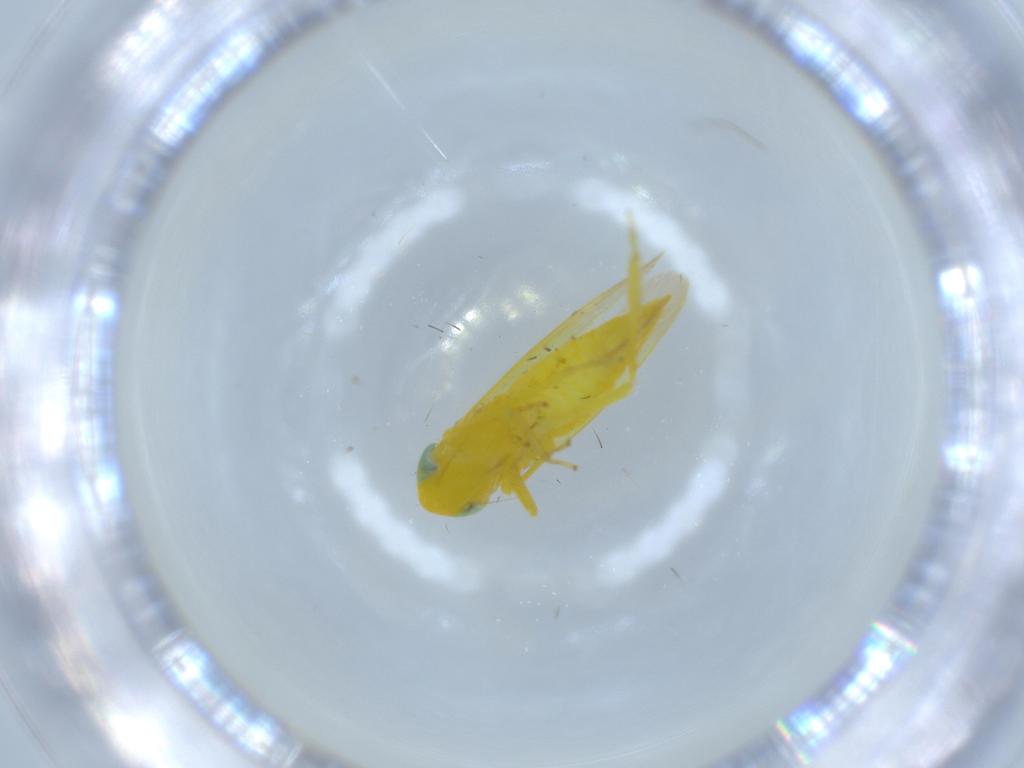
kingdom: Animalia
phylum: Arthropoda
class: Insecta
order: Hemiptera
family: Cicadellidae
